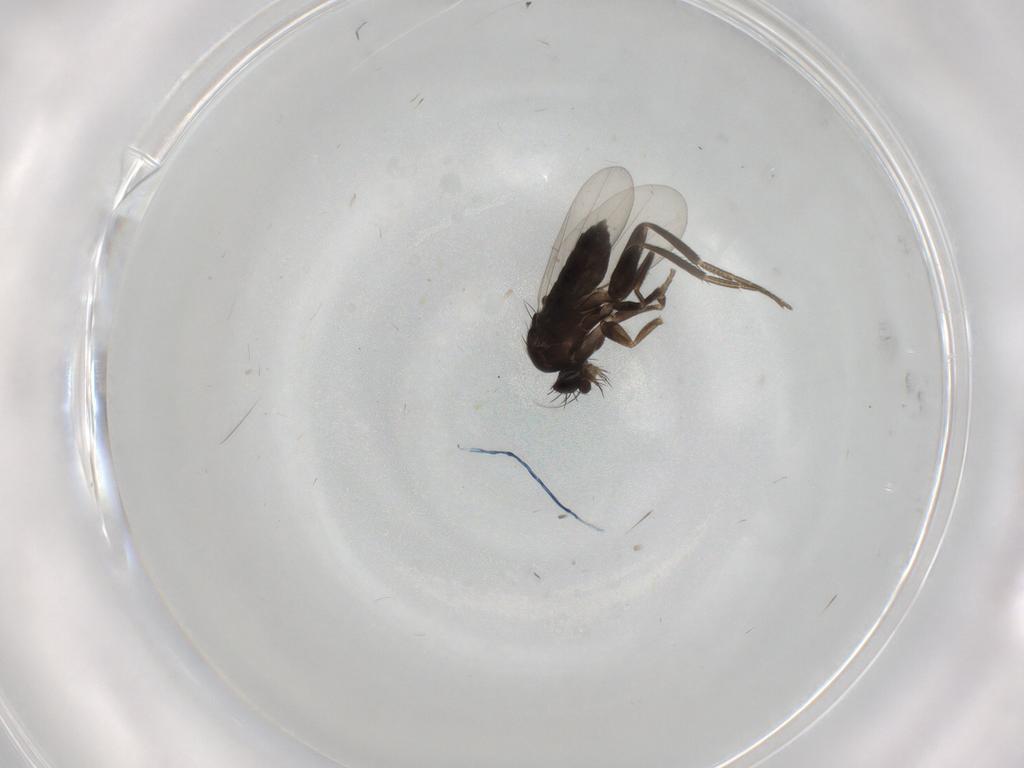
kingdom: Animalia
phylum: Arthropoda
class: Insecta
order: Diptera
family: Phoridae
